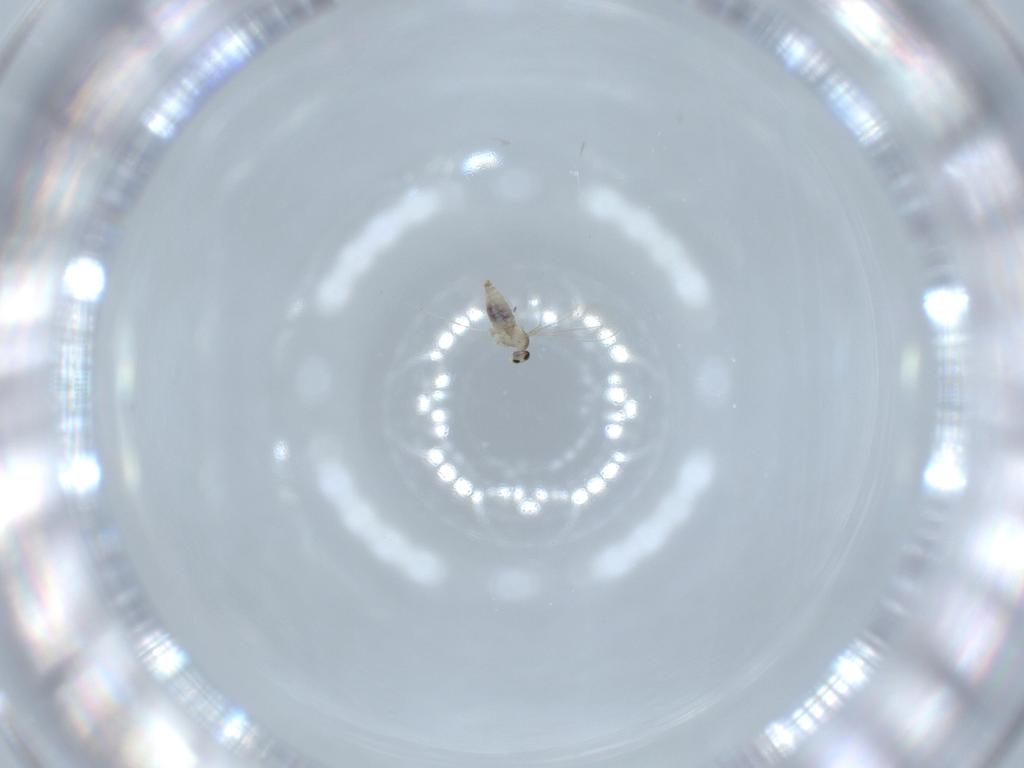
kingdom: Animalia
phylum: Arthropoda
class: Insecta
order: Diptera
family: Cecidomyiidae
